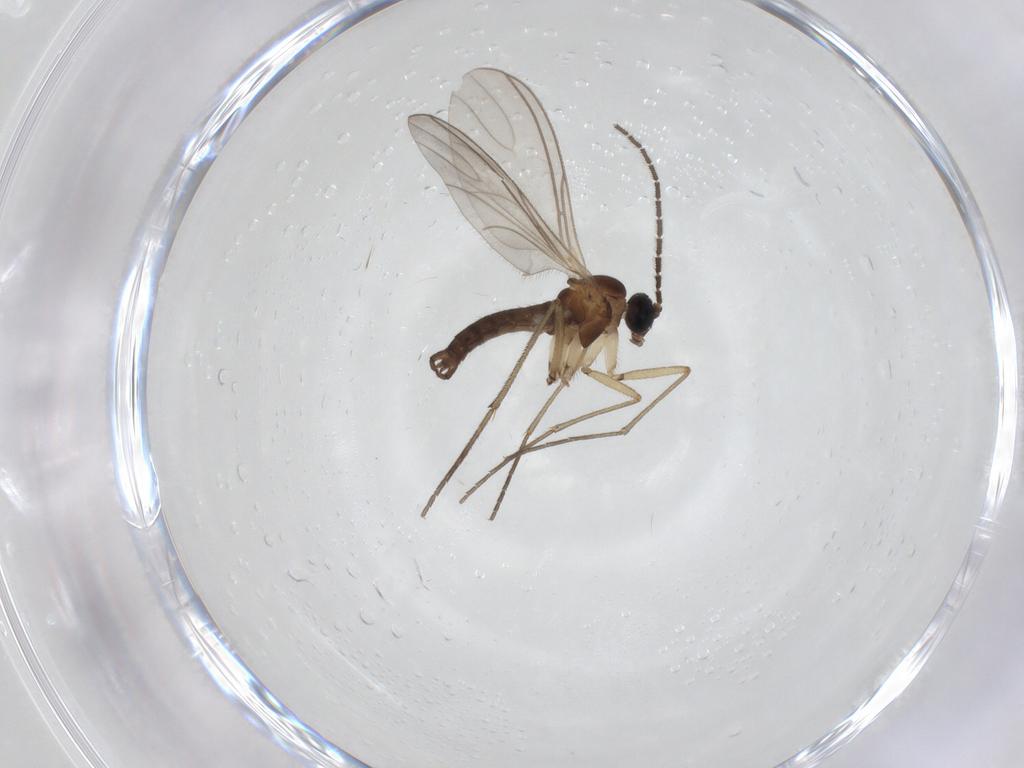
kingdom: Animalia
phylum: Arthropoda
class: Insecta
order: Diptera
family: Sciaridae
